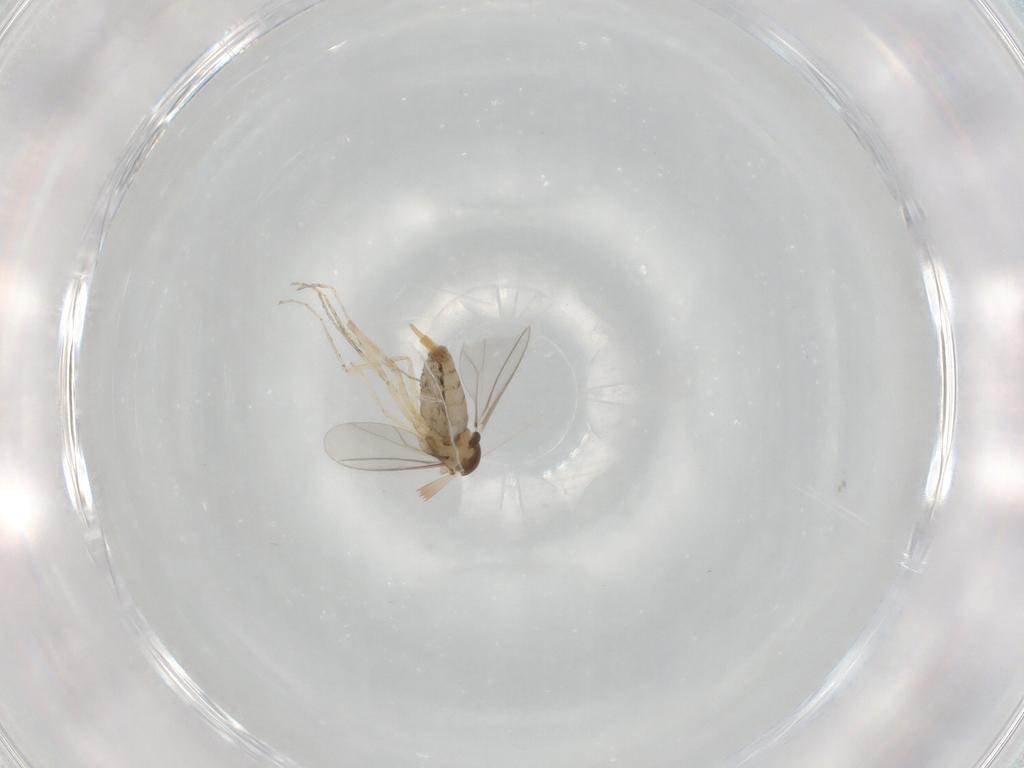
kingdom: Animalia
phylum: Arthropoda
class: Insecta
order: Diptera
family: Cecidomyiidae
